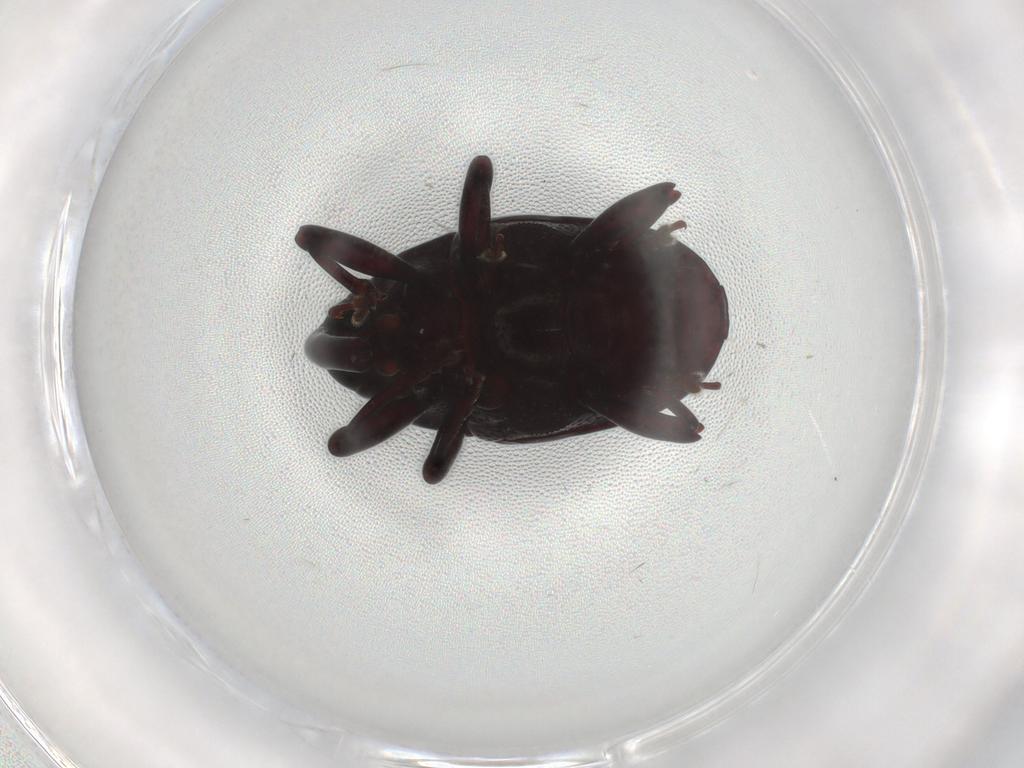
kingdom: Animalia
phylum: Arthropoda
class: Insecta
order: Coleoptera
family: Curculionidae
